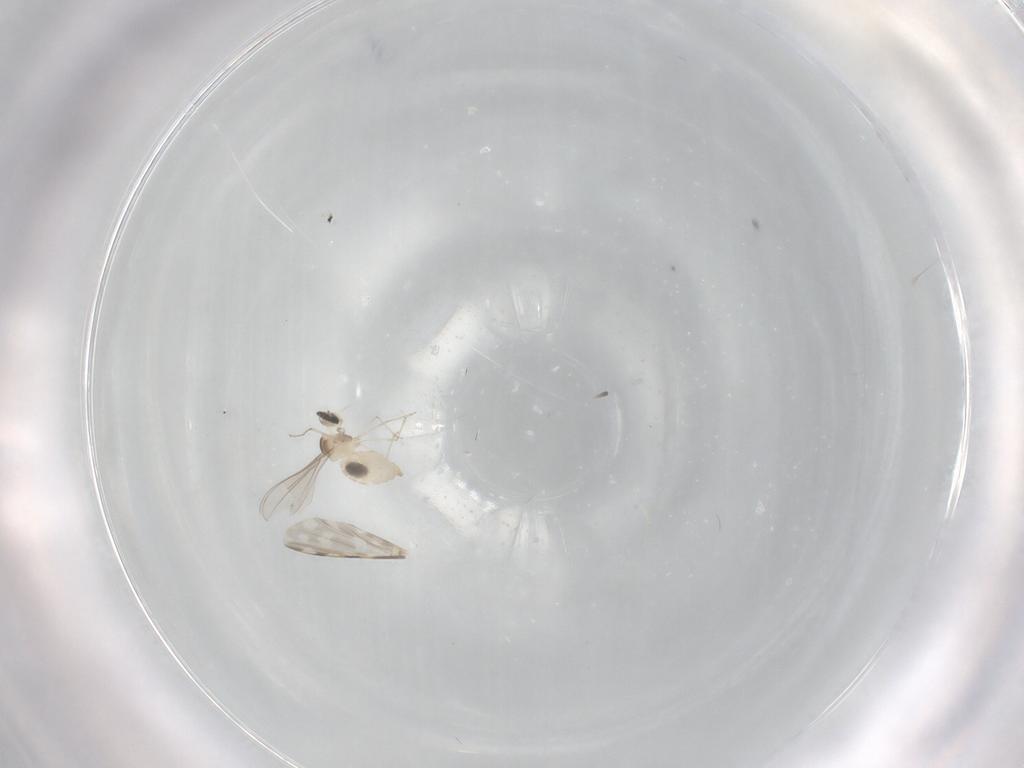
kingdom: Animalia
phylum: Arthropoda
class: Insecta
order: Diptera
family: Cecidomyiidae
